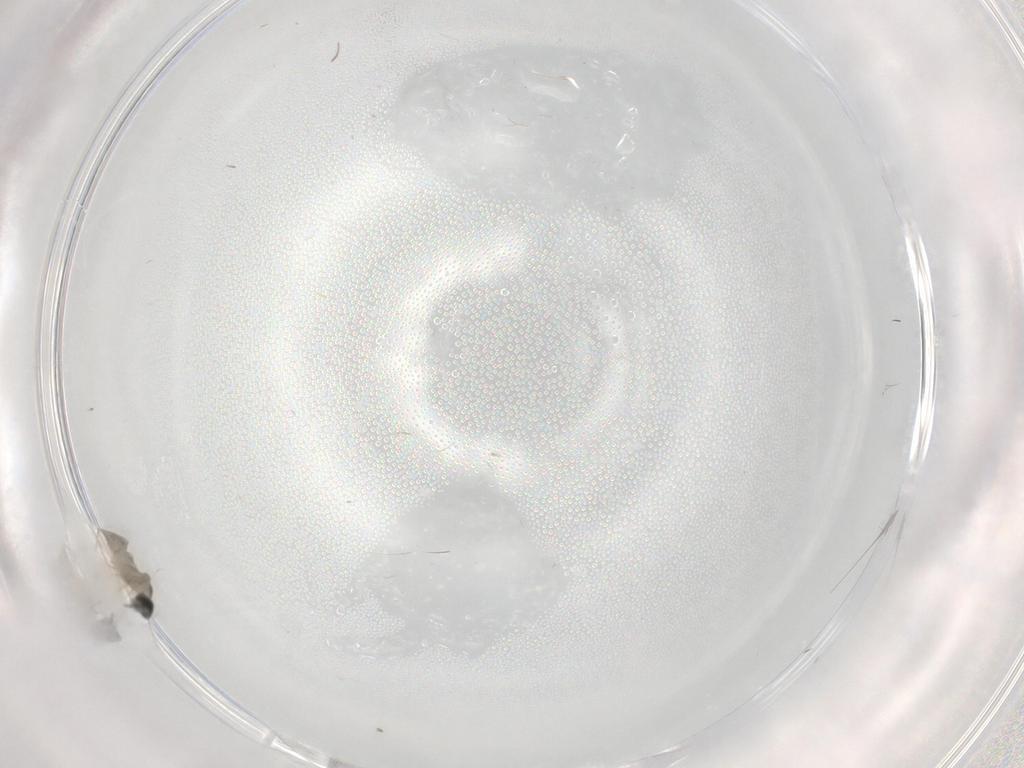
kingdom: Animalia
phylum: Arthropoda
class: Insecta
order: Diptera
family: Cecidomyiidae
